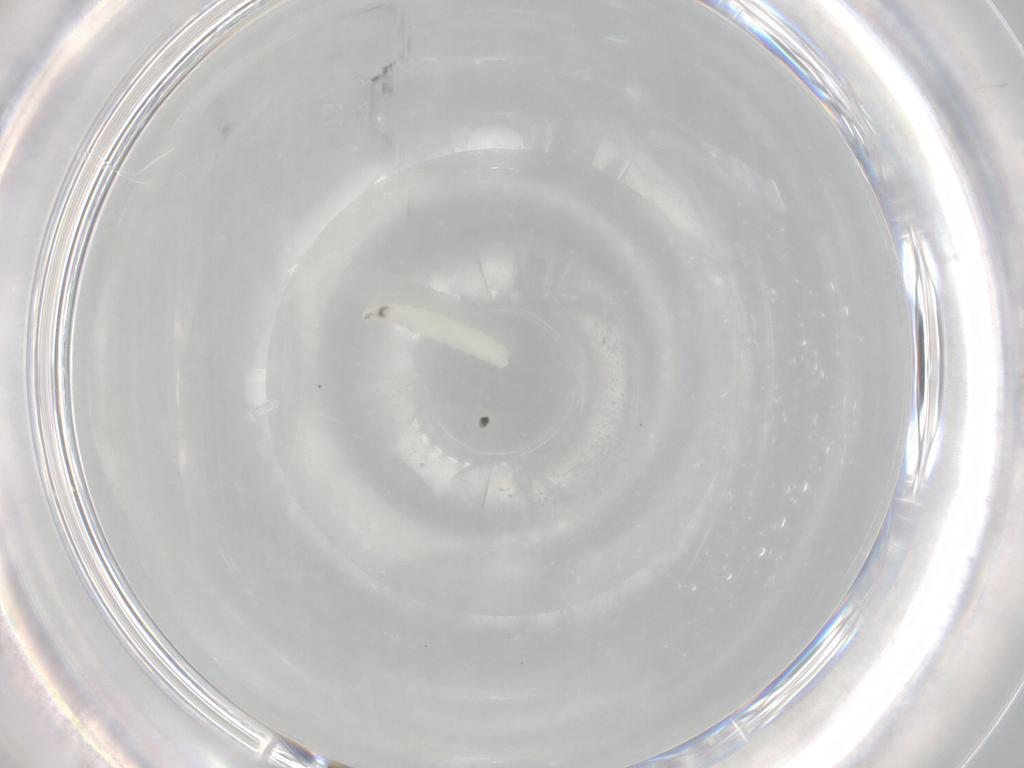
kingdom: Animalia
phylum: Arthropoda
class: Insecta
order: Diptera
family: Sarcophagidae
